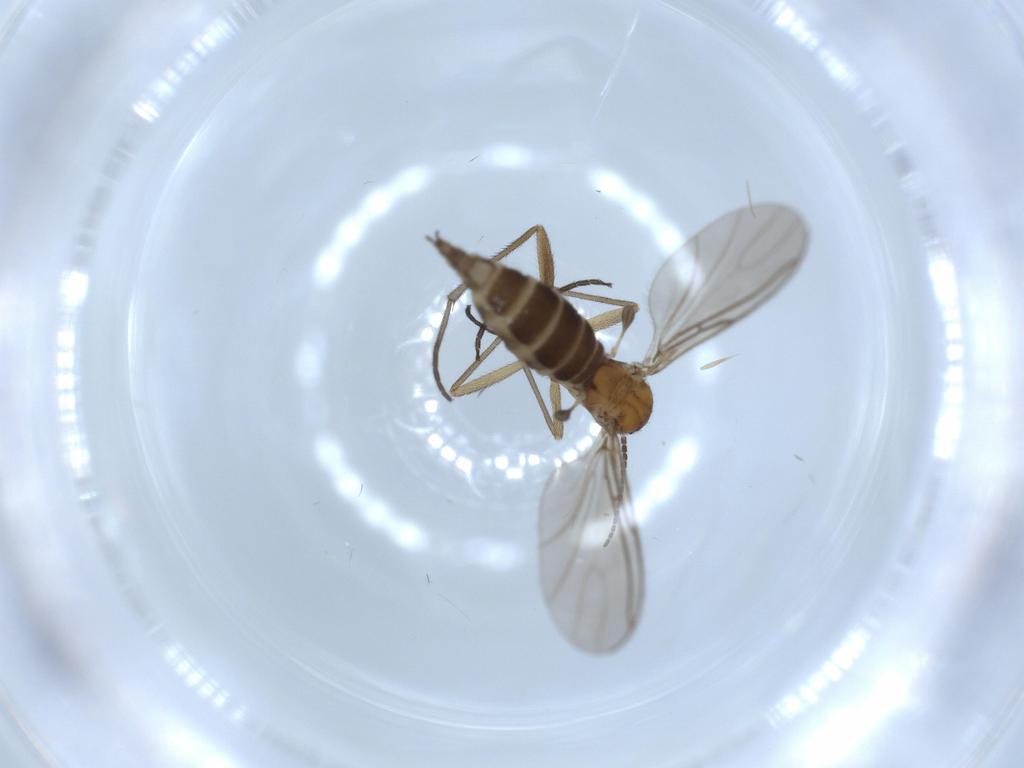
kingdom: Animalia
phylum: Arthropoda
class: Insecta
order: Diptera
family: Sciaridae
